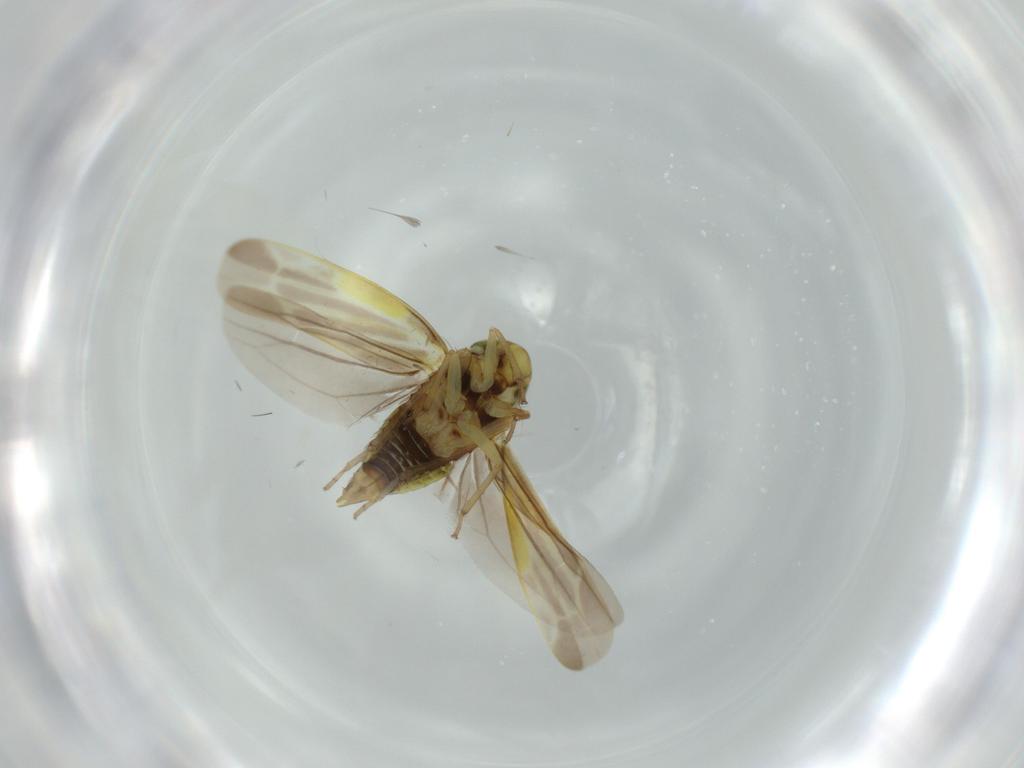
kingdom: Animalia
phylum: Arthropoda
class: Insecta
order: Hemiptera
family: Cicadellidae
